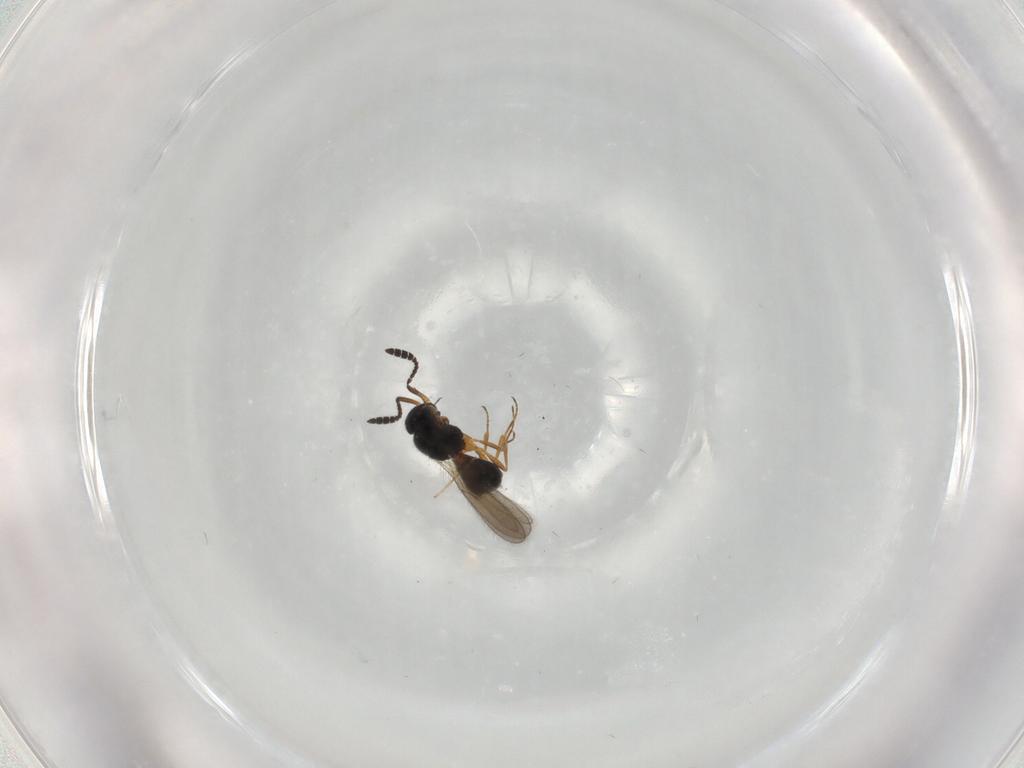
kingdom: Animalia
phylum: Arthropoda
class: Insecta
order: Hymenoptera
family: Scelionidae
